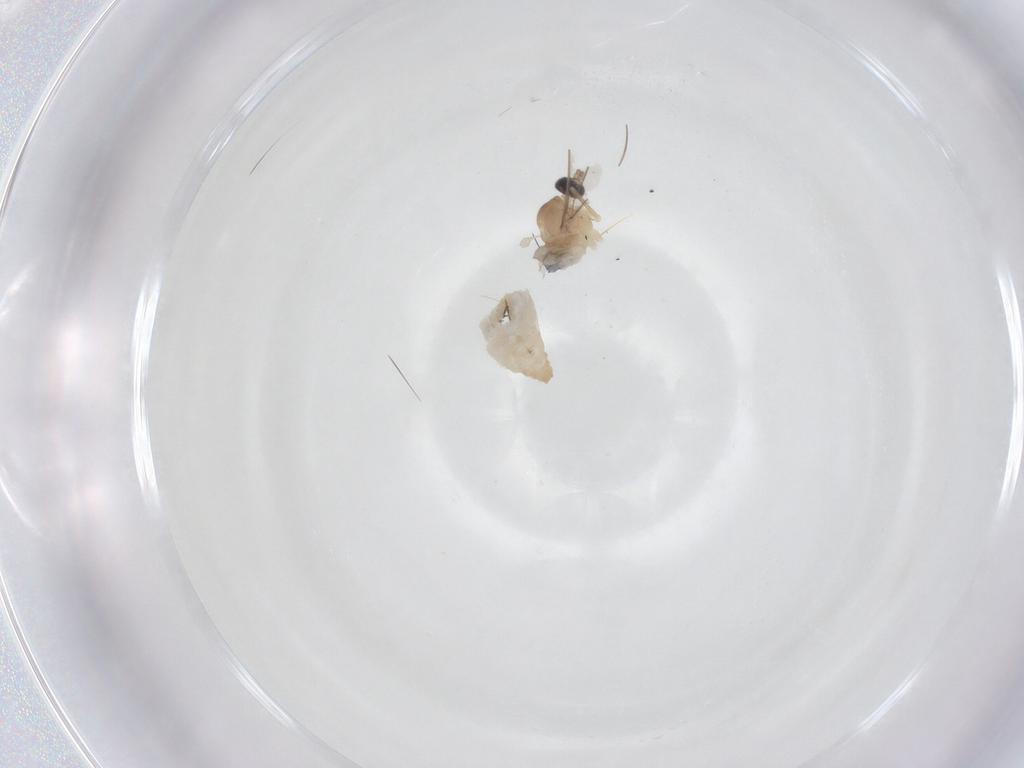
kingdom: Animalia
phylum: Arthropoda
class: Insecta
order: Diptera
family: Cecidomyiidae
